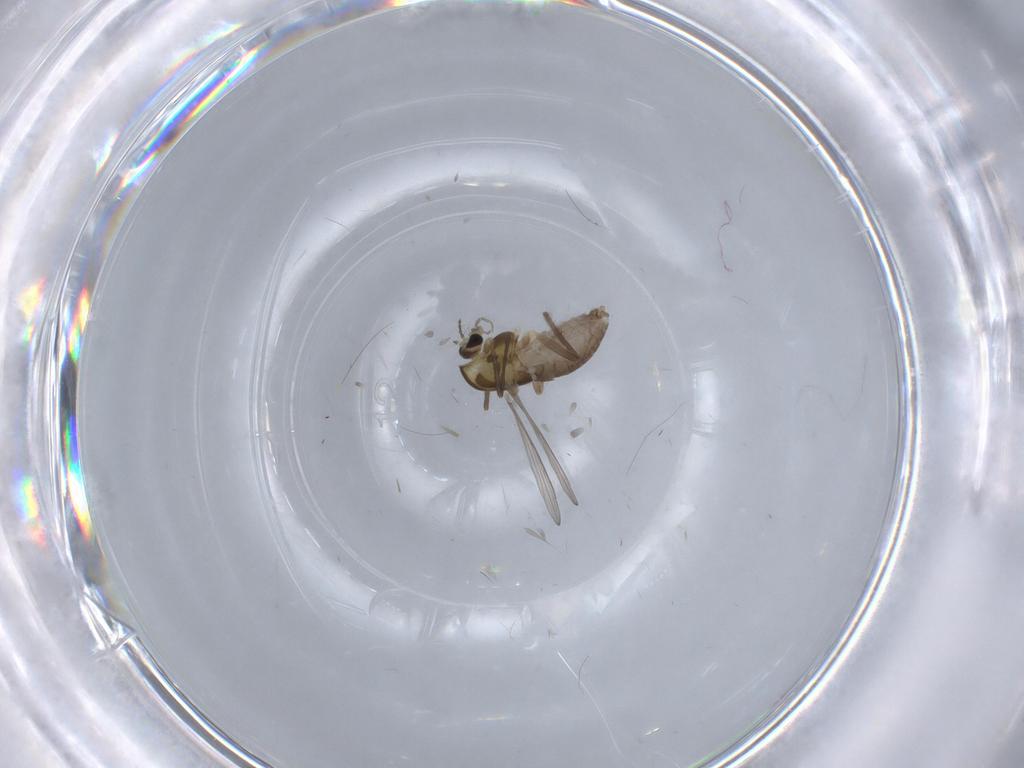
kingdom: Animalia
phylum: Arthropoda
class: Insecta
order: Diptera
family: Chironomidae
